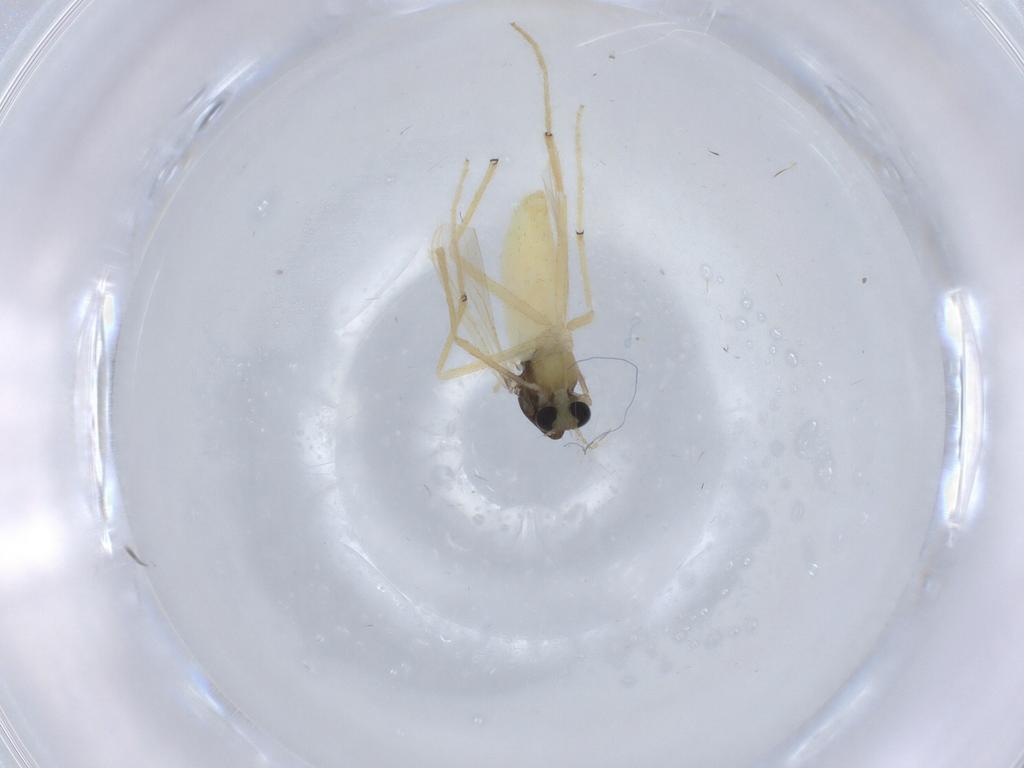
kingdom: Animalia
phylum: Arthropoda
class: Insecta
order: Diptera
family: Chironomidae
